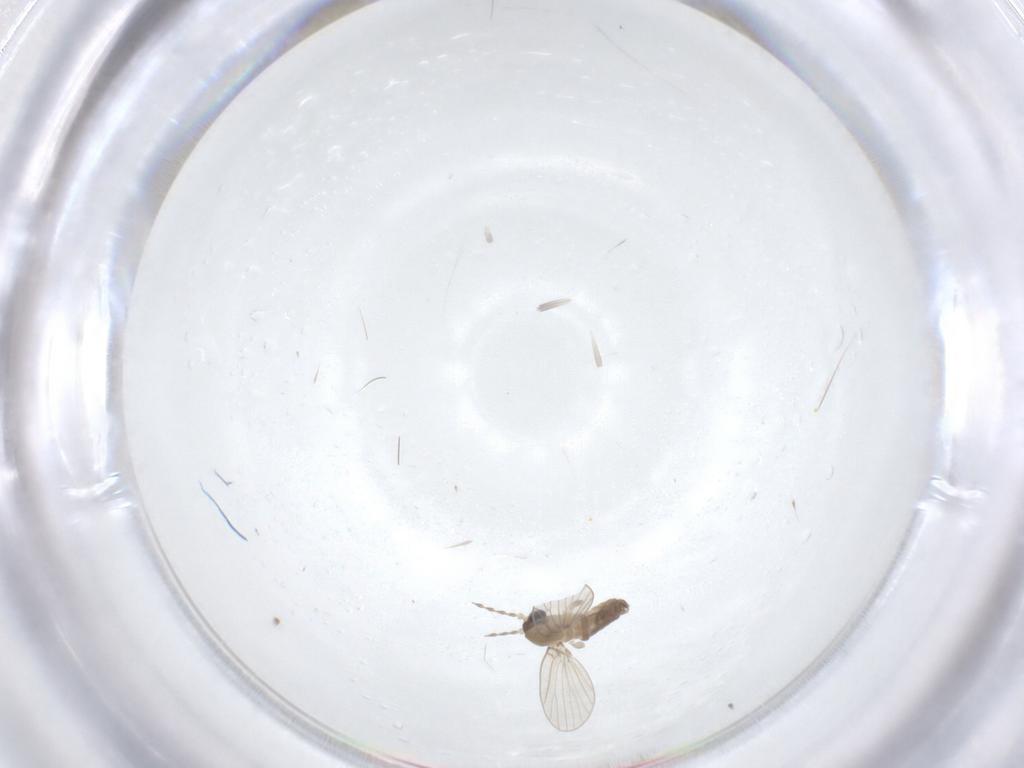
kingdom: Animalia
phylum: Arthropoda
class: Insecta
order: Diptera
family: Psychodidae
